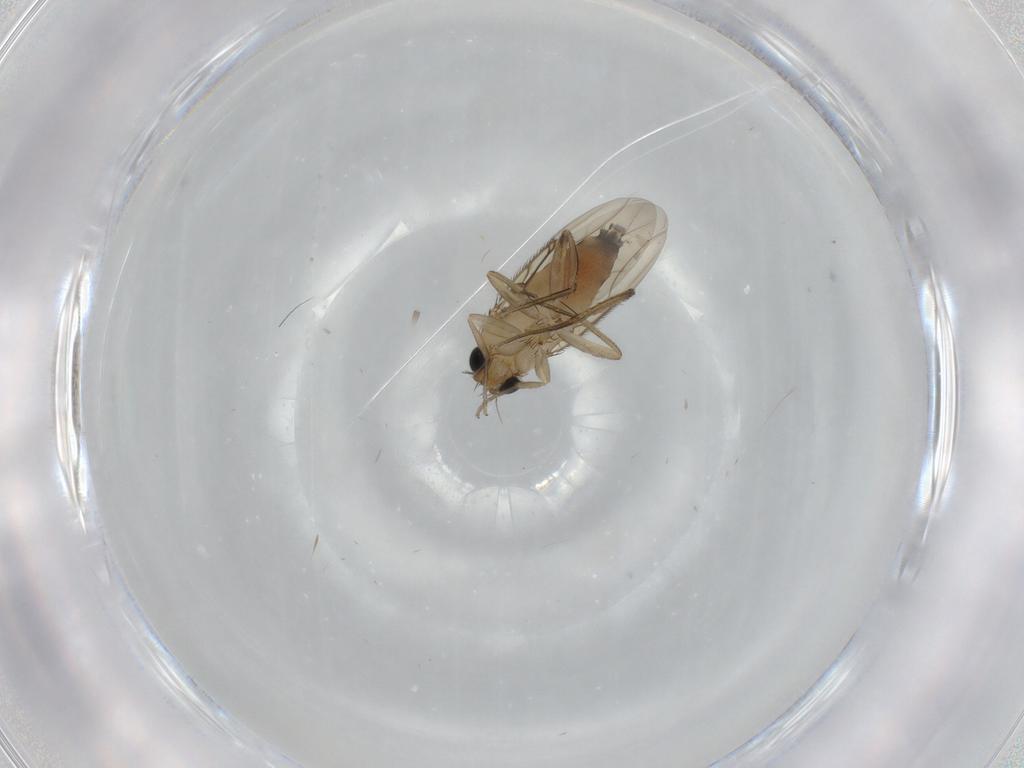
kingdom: Animalia
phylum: Arthropoda
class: Insecta
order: Diptera
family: Phoridae
